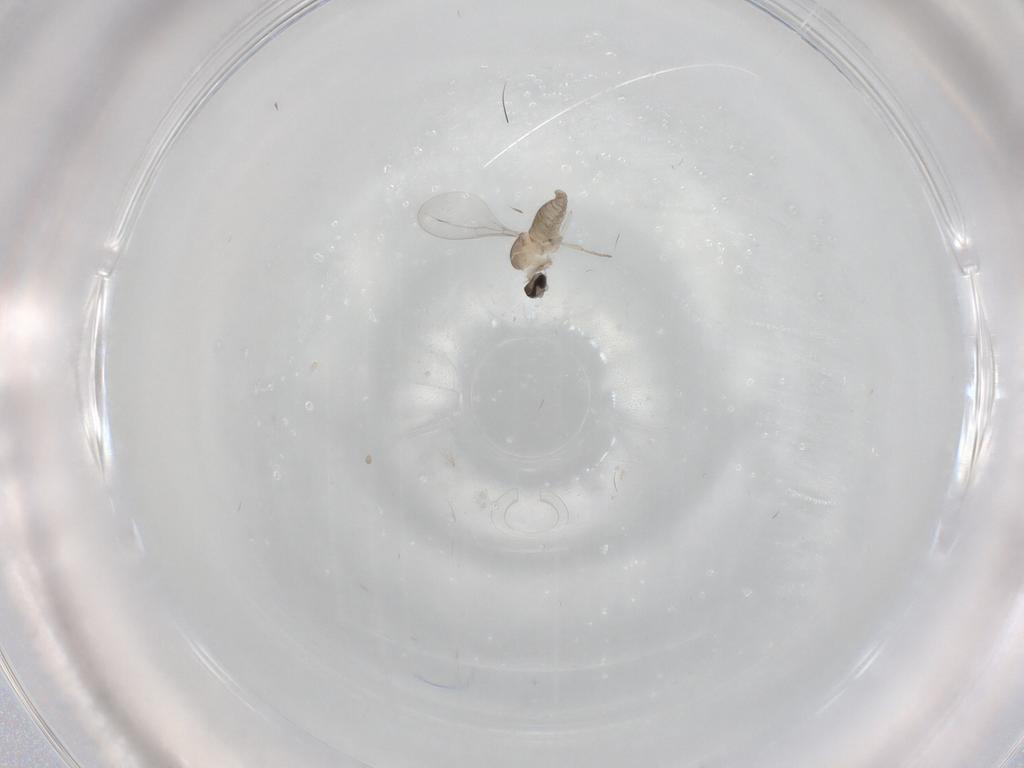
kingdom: Animalia
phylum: Arthropoda
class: Insecta
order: Diptera
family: Cecidomyiidae
